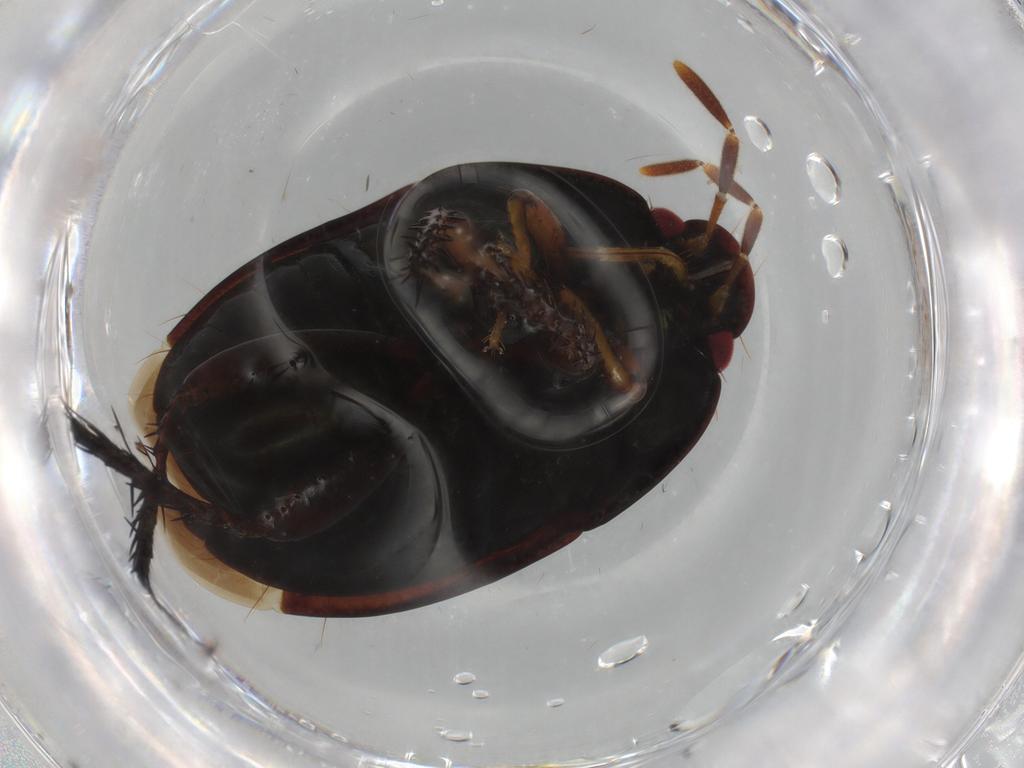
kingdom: Animalia
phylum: Arthropoda
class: Insecta
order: Hemiptera
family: Cydnidae
